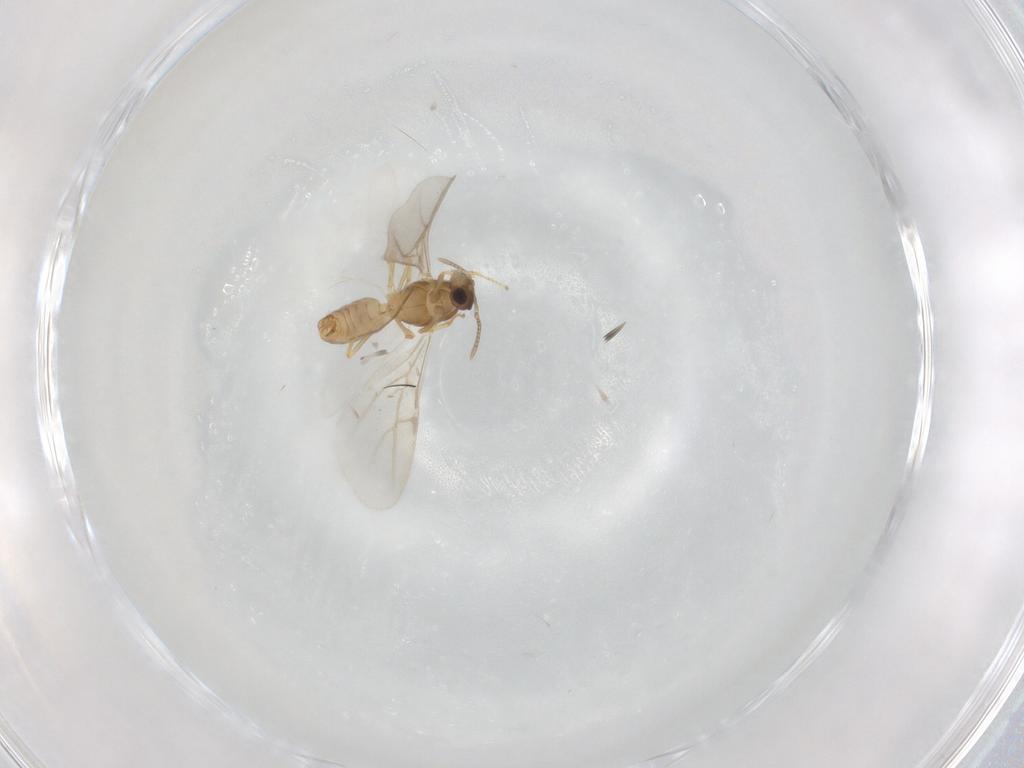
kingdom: Animalia
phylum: Arthropoda
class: Insecta
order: Hymenoptera
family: Formicidae
